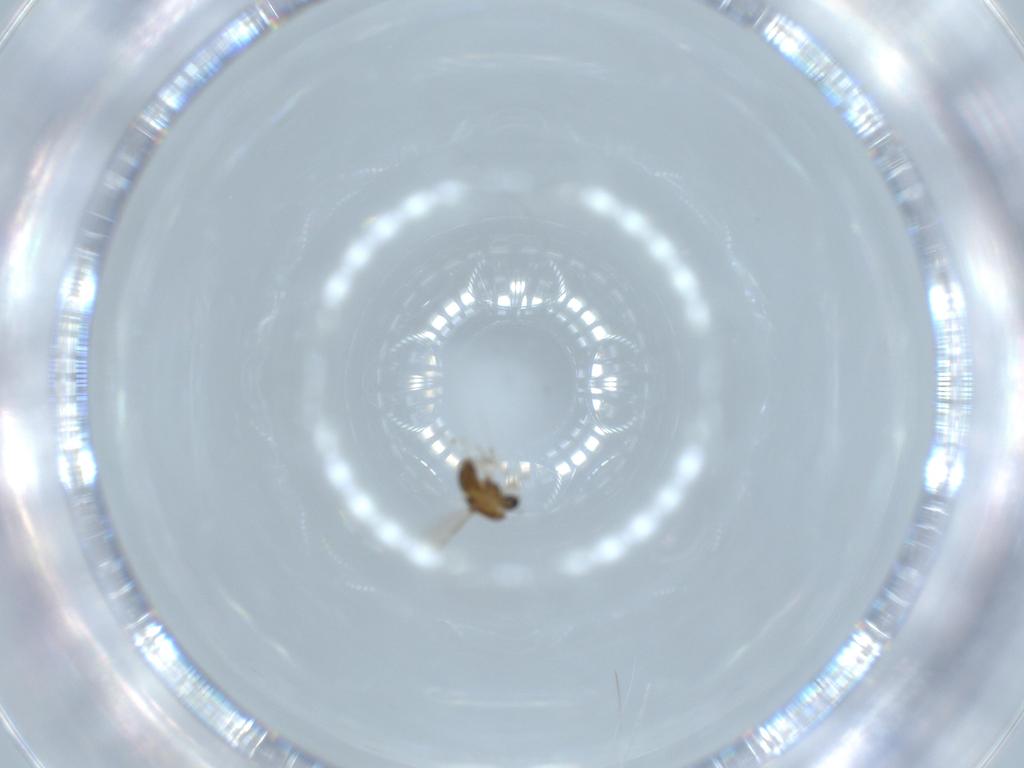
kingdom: Animalia
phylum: Arthropoda
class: Insecta
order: Diptera
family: Chironomidae
